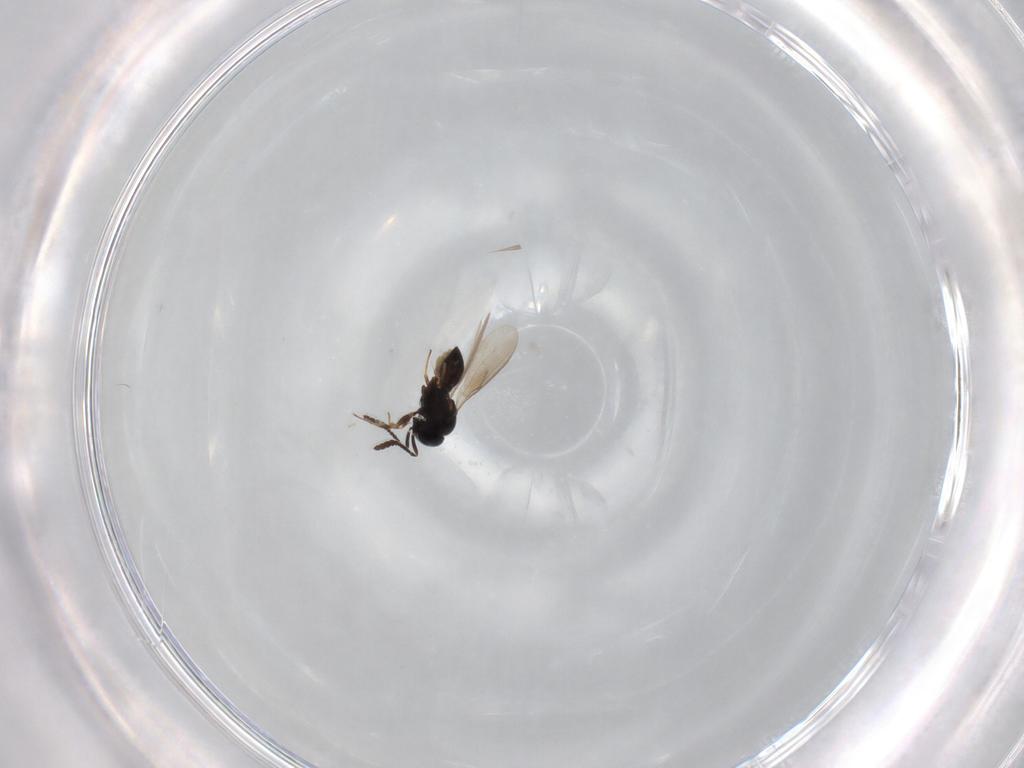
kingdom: Animalia
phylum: Arthropoda
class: Insecta
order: Hymenoptera
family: Scelionidae
